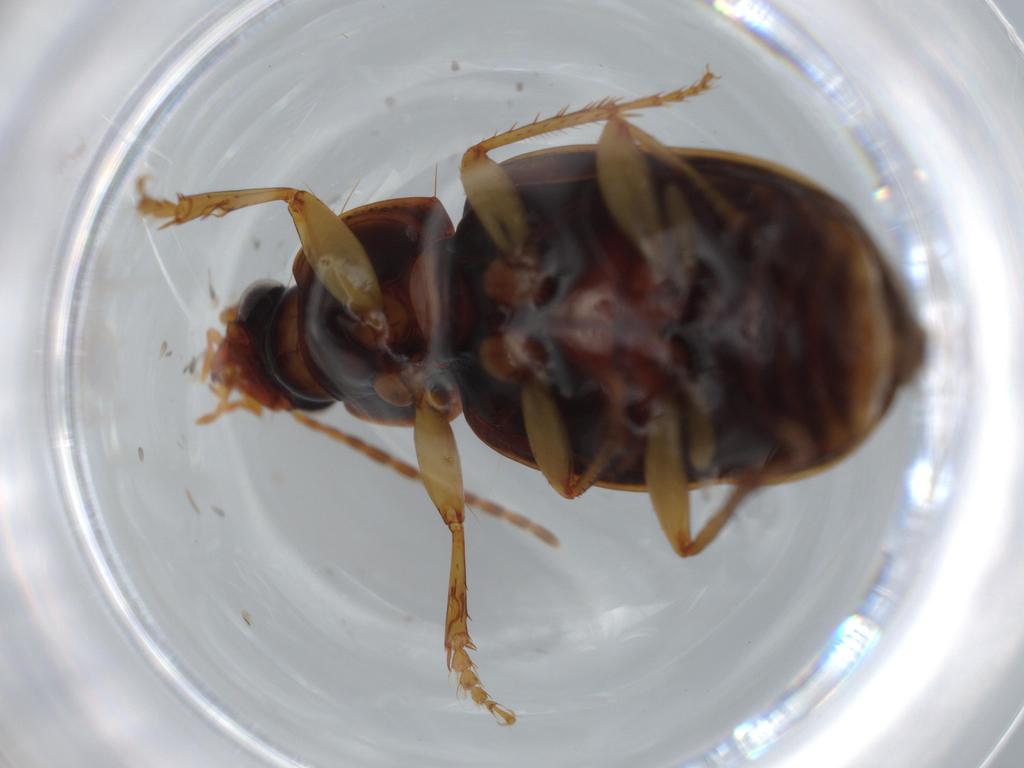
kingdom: Animalia
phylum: Arthropoda
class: Insecta
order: Coleoptera
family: Carabidae
